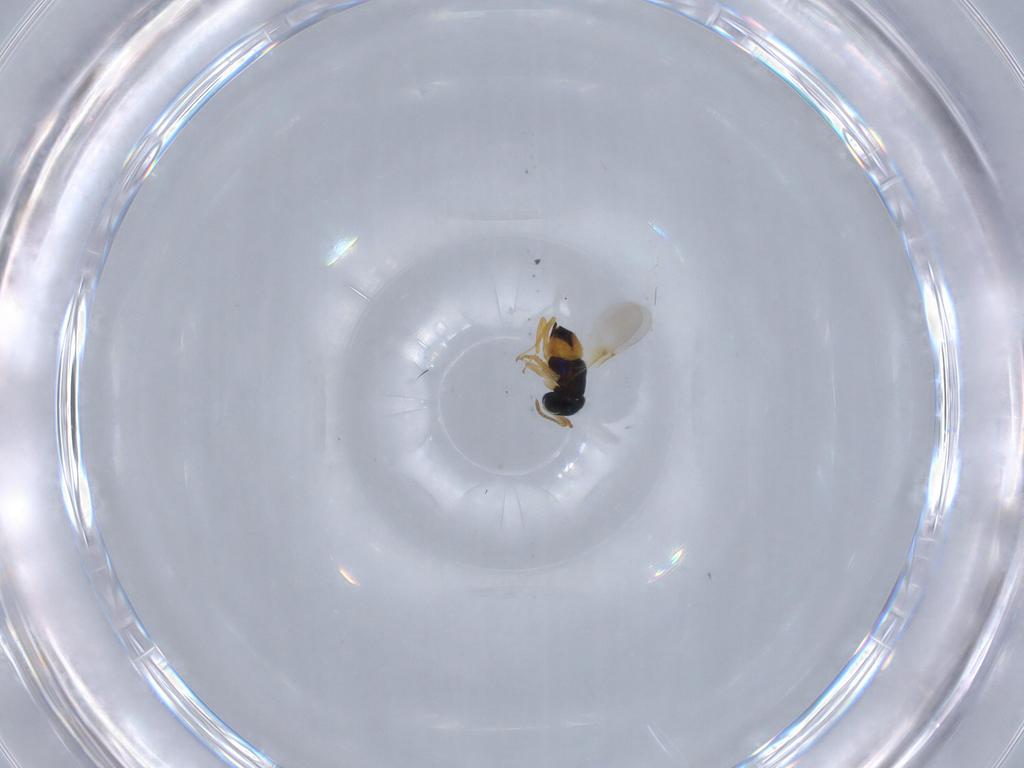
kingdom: Animalia
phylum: Arthropoda
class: Insecta
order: Hymenoptera
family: Encyrtidae
